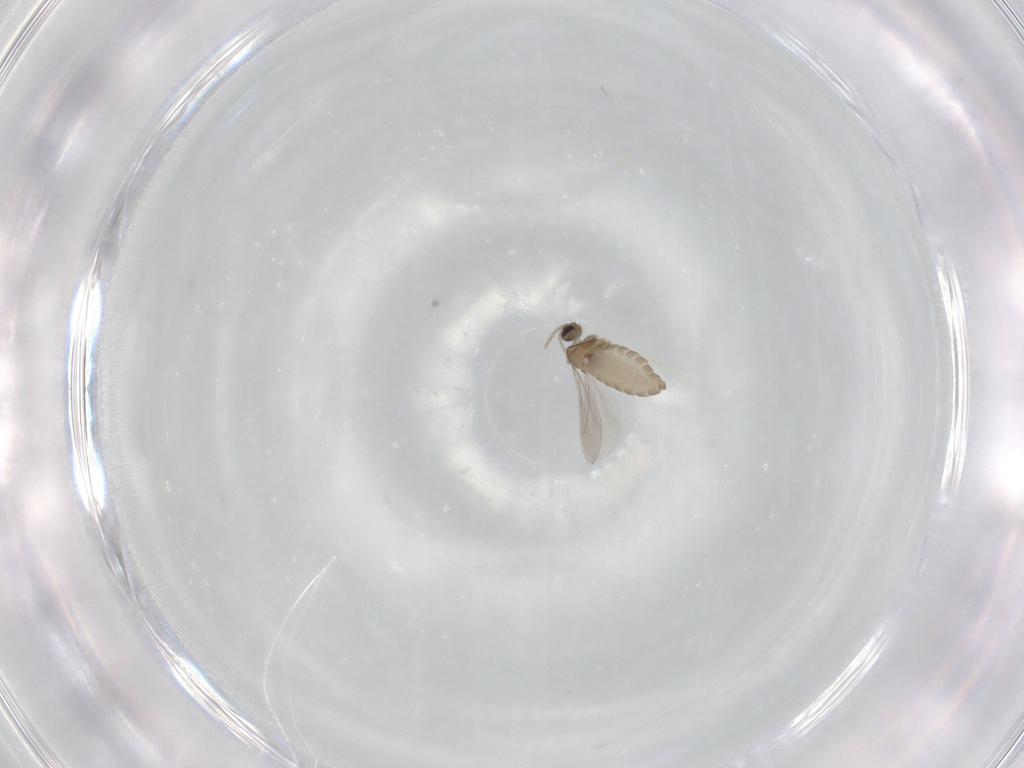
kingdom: Animalia
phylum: Arthropoda
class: Insecta
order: Diptera
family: Cecidomyiidae
